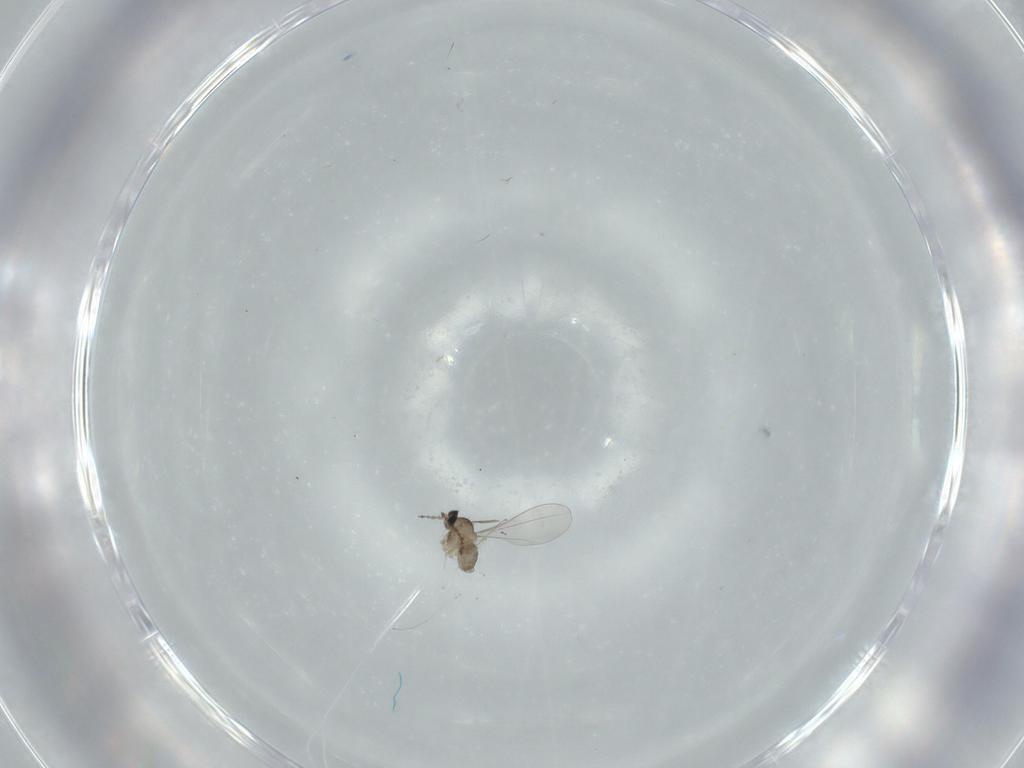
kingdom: Animalia
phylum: Arthropoda
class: Insecta
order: Diptera
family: Cecidomyiidae
